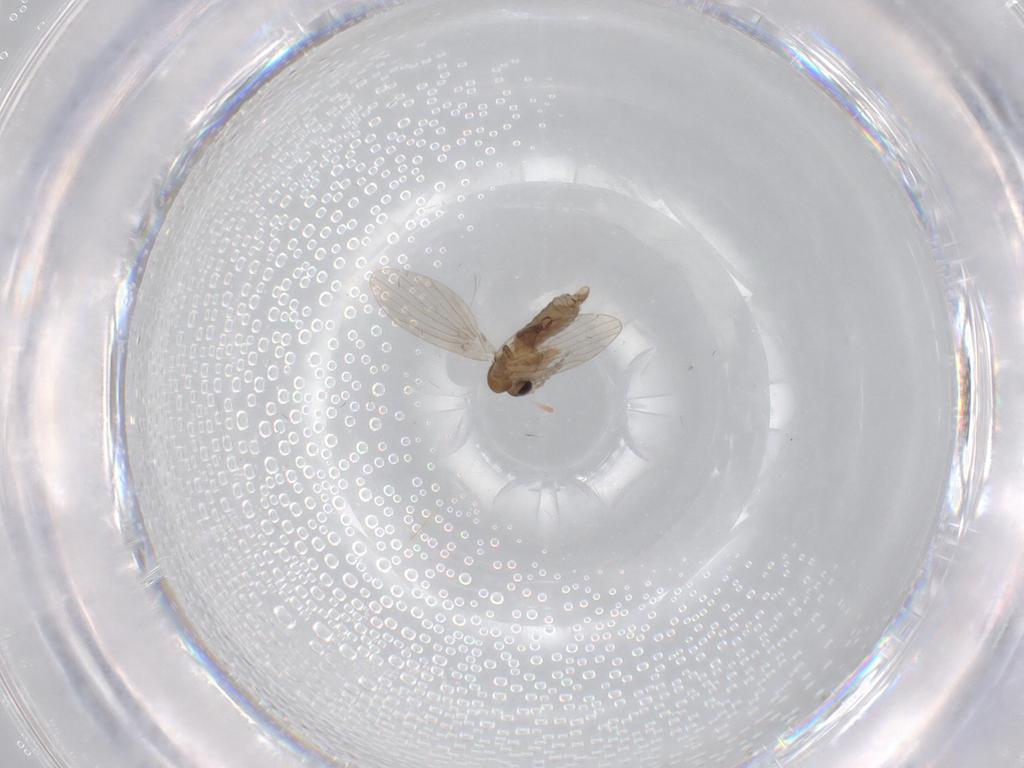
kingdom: Animalia
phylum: Arthropoda
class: Insecta
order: Diptera
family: Psychodidae
